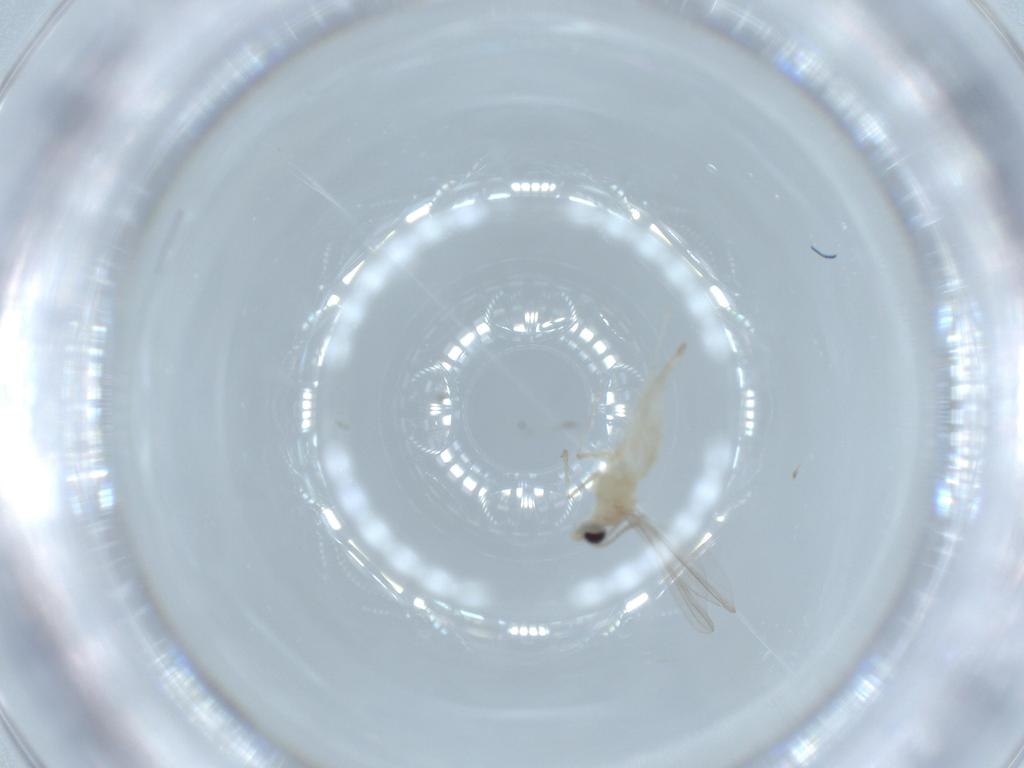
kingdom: Animalia
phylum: Arthropoda
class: Insecta
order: Diptera
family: Cecidomyiidae
